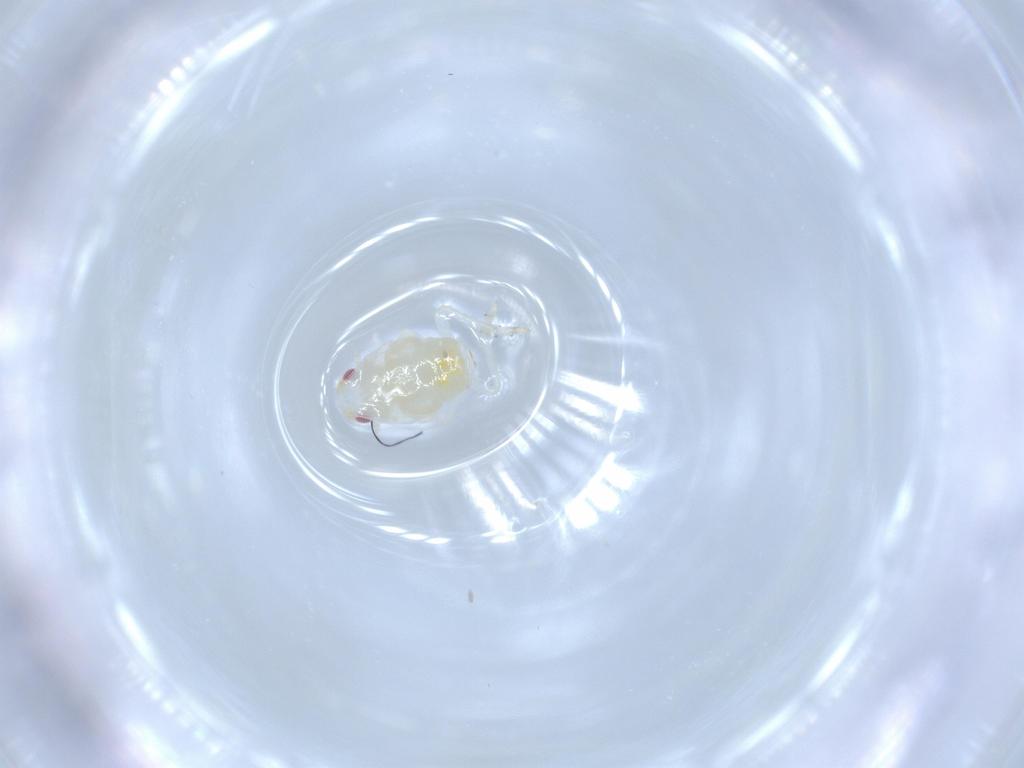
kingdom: Animalia
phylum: Arthropoda
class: Insecta
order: Hemiptera
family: Flatidae
